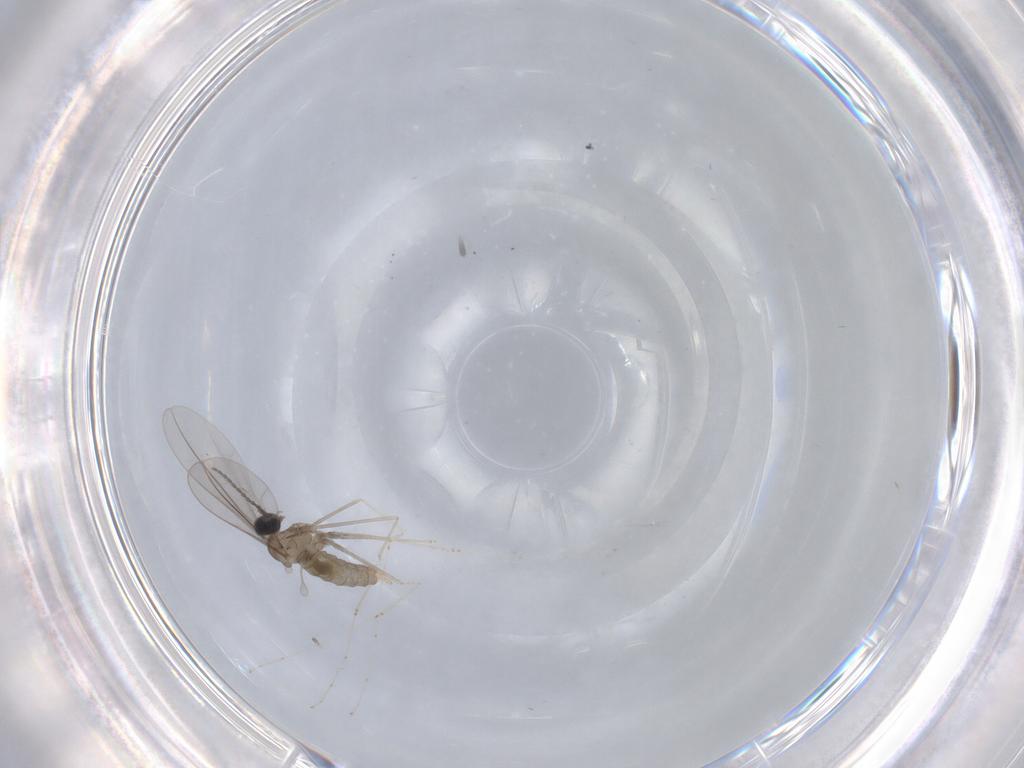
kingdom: Animalia
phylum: Arthropoda
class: Insecta
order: Diptera
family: Cecidomyiidae
